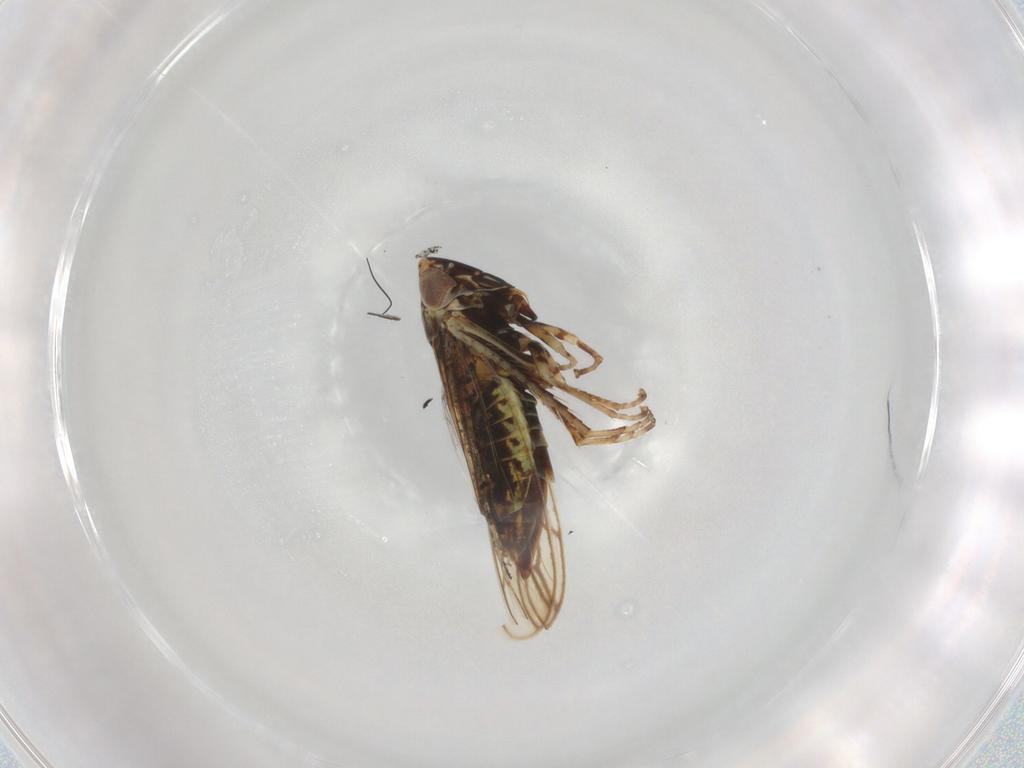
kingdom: Animalia
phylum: Arthropoda
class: Insecta
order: Hemiptera
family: Cicadellidae
